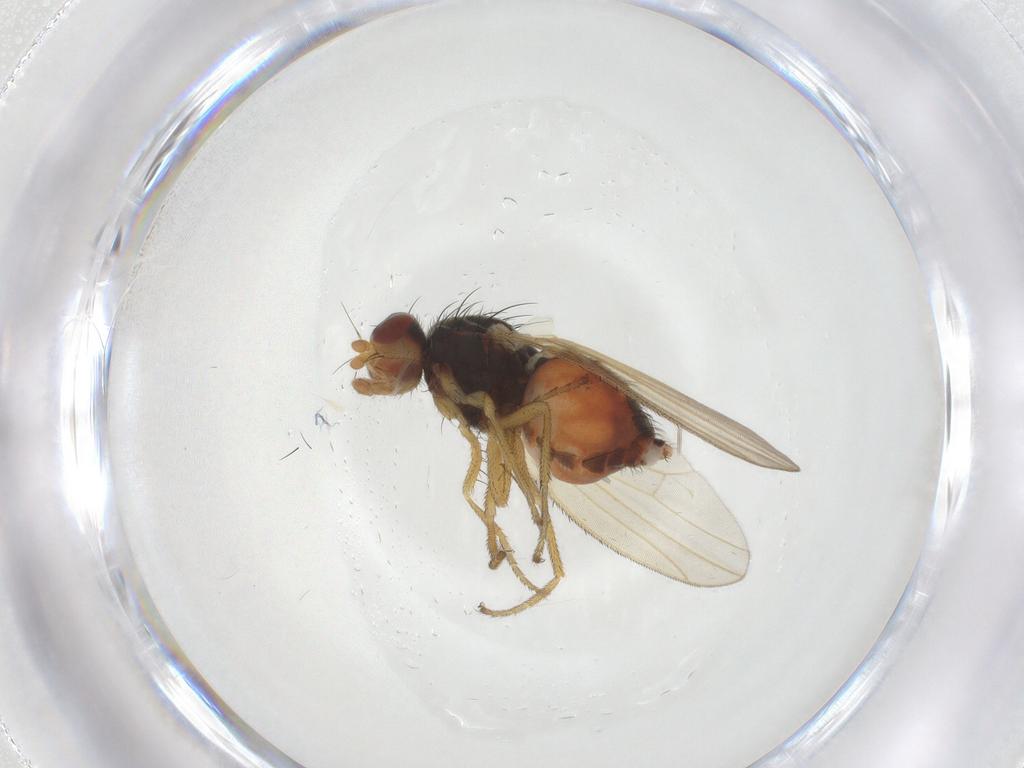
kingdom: Animalia
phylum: Arthropoda
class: Insecta
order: Diptera
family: Heleomyzidae
